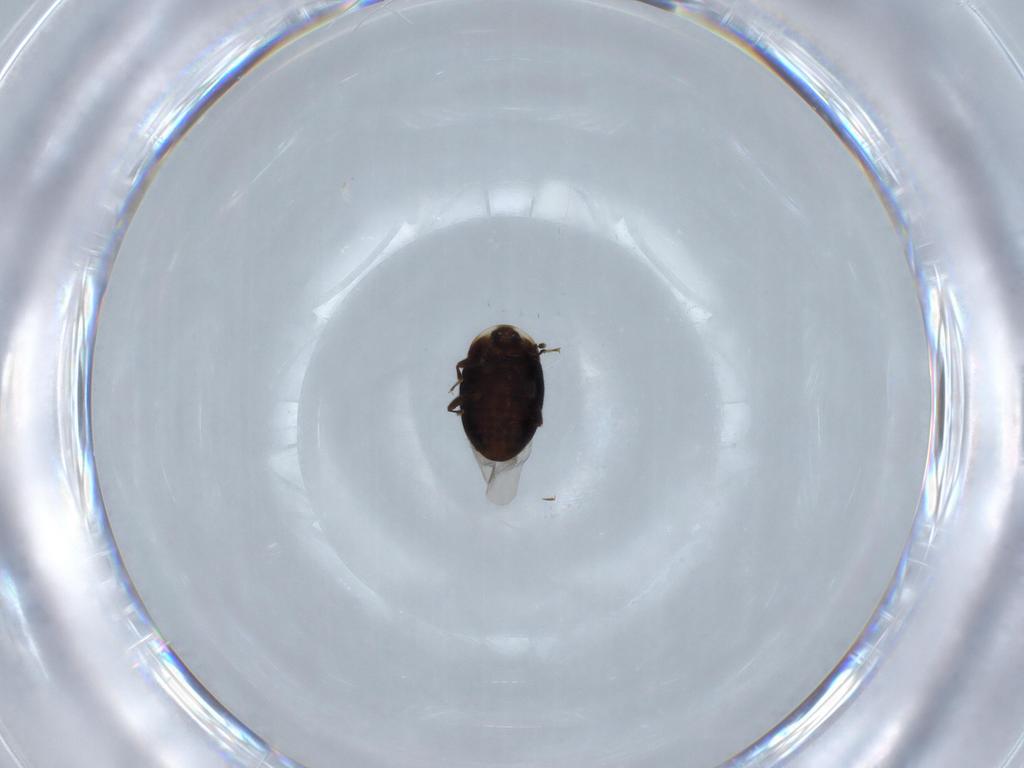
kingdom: Animalia
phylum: Arthropoda
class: Insecta
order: Coleoptera
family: Corylophidae
